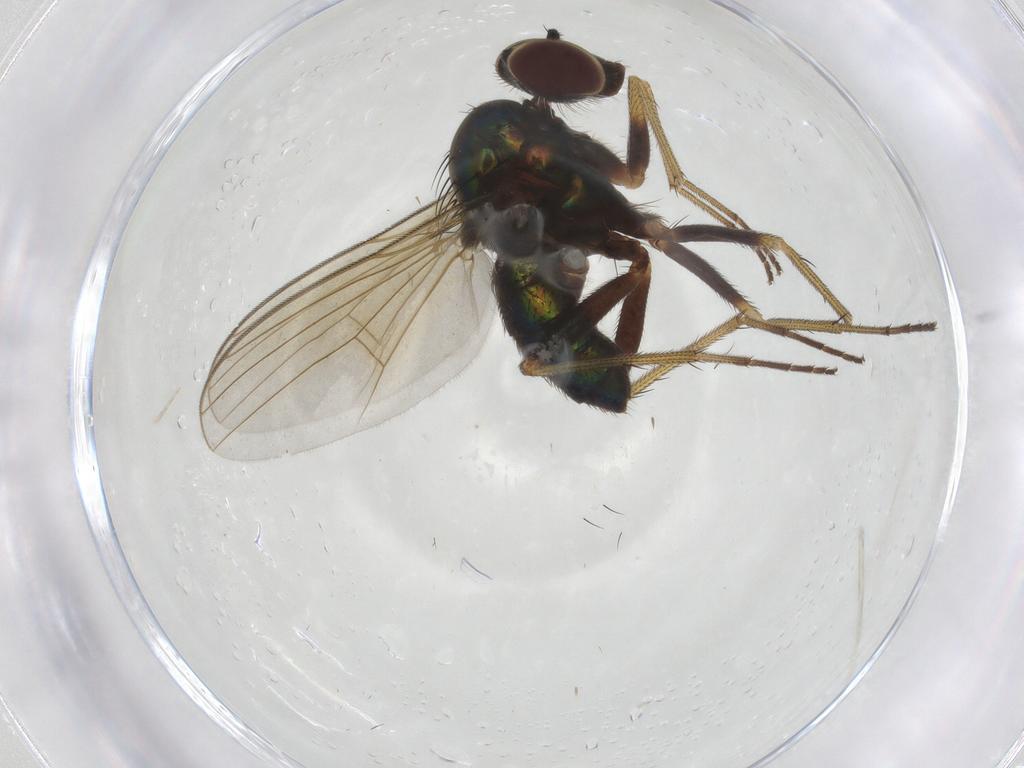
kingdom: Animalia
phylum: Arthropoda
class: Insecta
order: Diptera
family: Dolichopodidae
